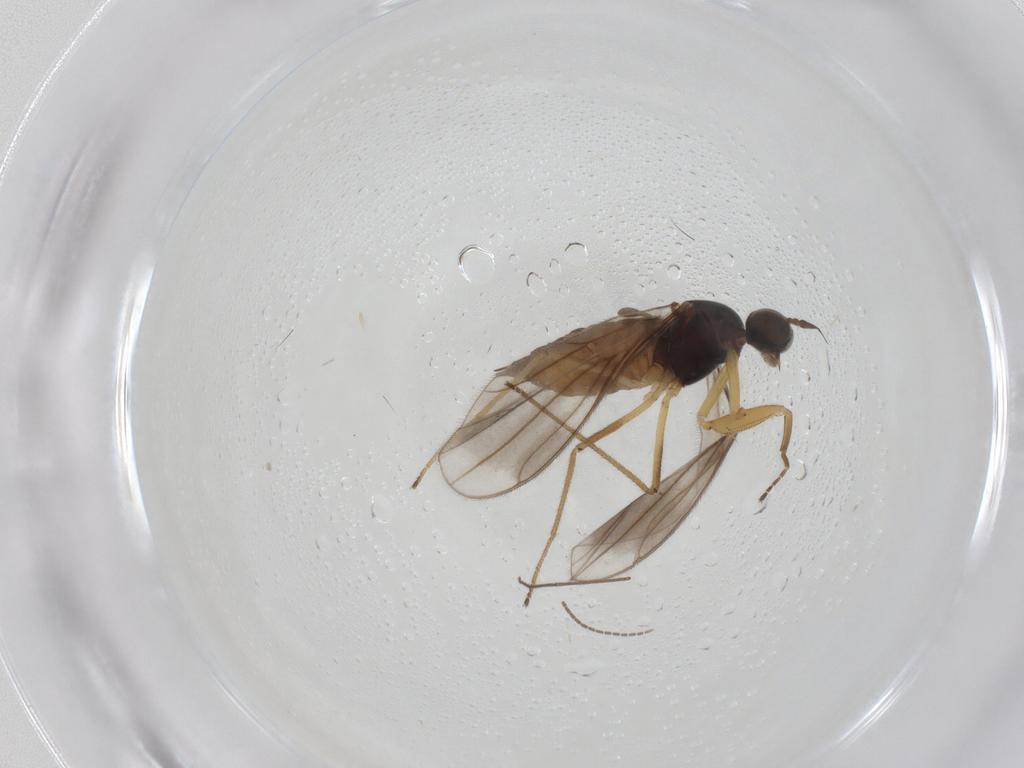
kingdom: Animalia
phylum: Arthropoda
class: Insecta
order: Diptera
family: Empididae
